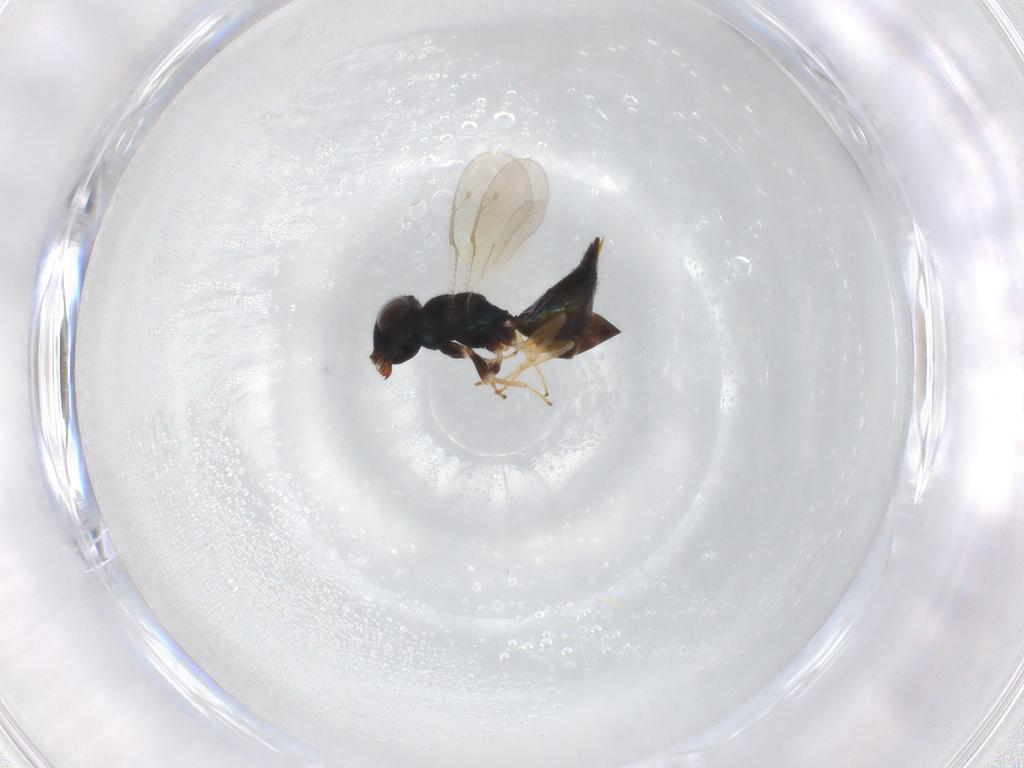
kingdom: Animalia
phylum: Arthropoda
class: Insecta
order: Hymenoptera
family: Pteromalidae
